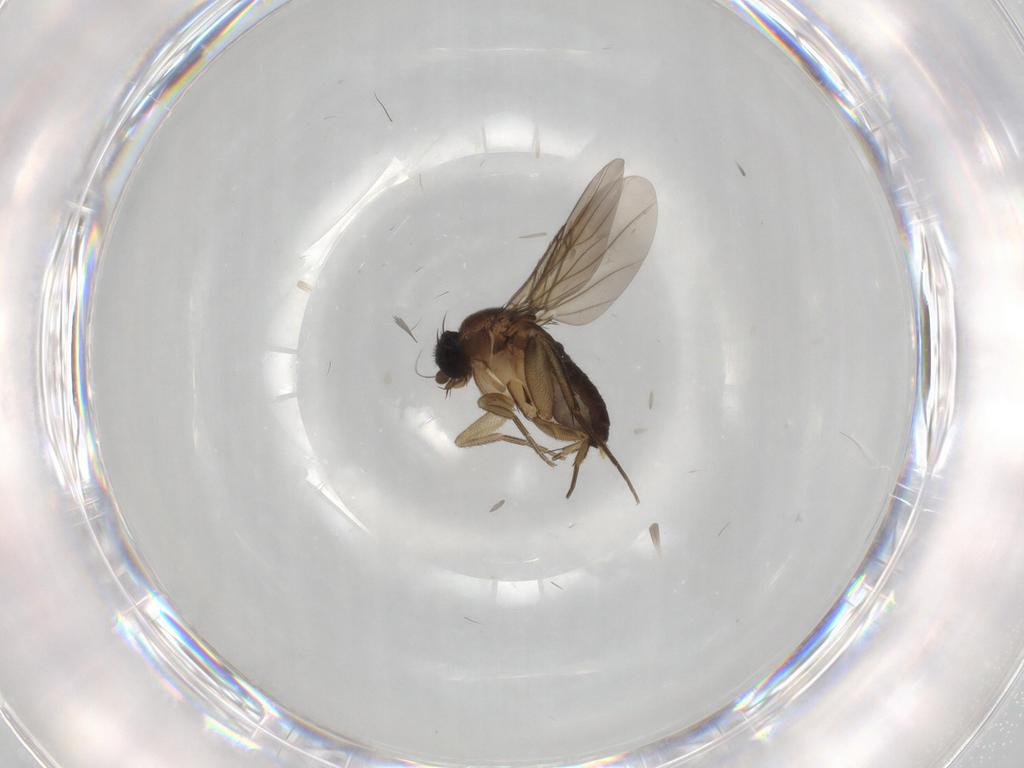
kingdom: Animalia
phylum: Arthropoda
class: Insecta
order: Diptera
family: Phoridae
